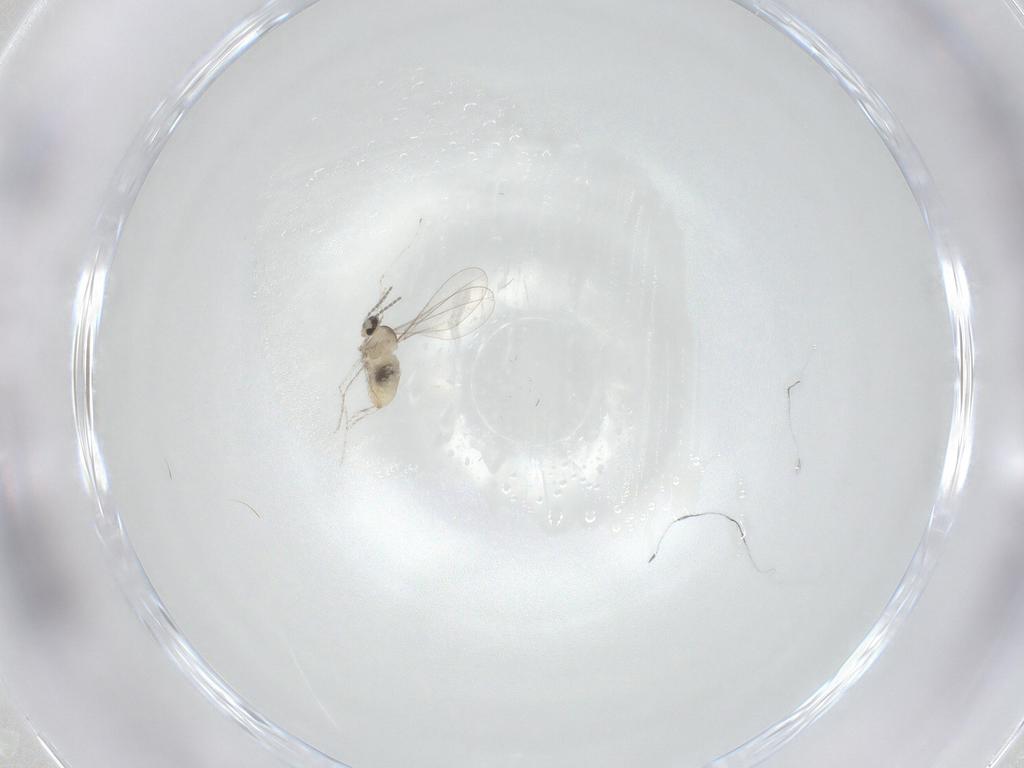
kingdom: Animalia
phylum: Arthropoda
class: Insecta
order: Diptera
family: Cecidomyiidae
